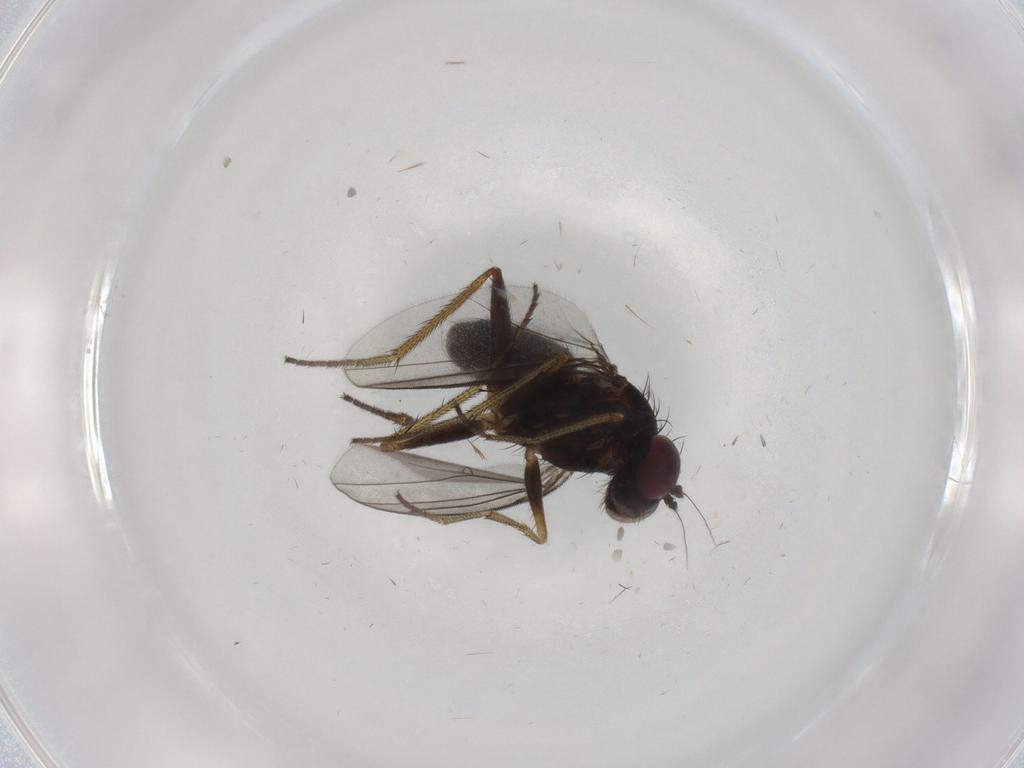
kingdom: Animalia
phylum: Arthropoda
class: Insecta
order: Diptera
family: Dolichopodidae
